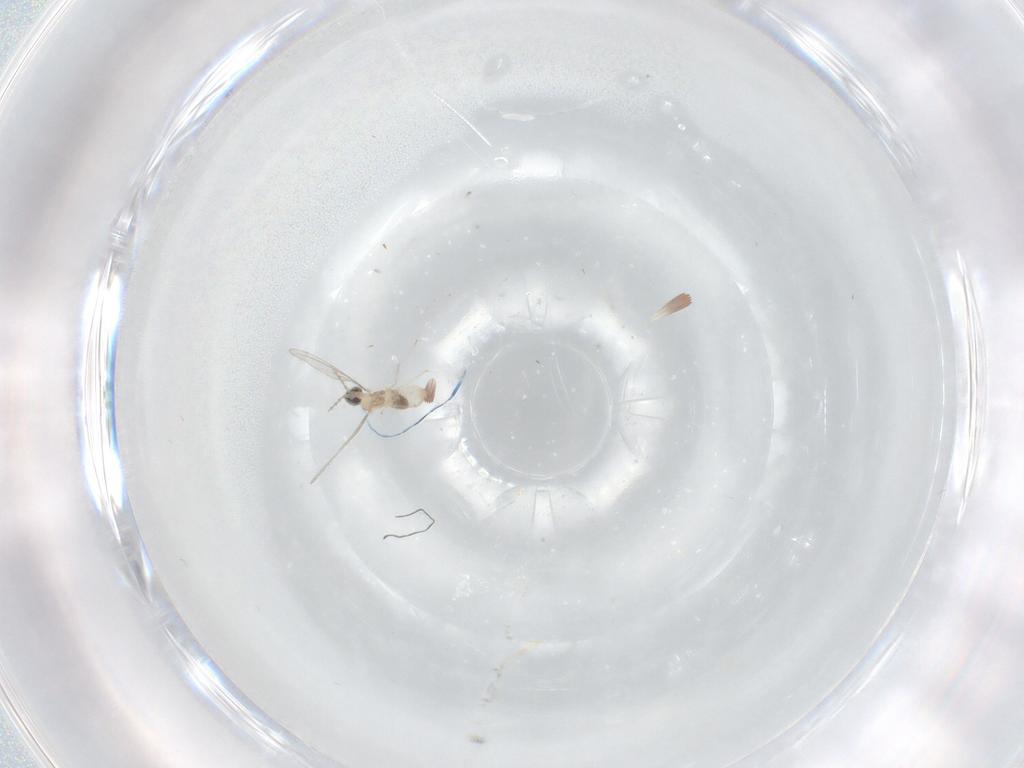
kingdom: Animalia
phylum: Arthropoda
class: Insecta
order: Diptera
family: Cecidomyiidae
